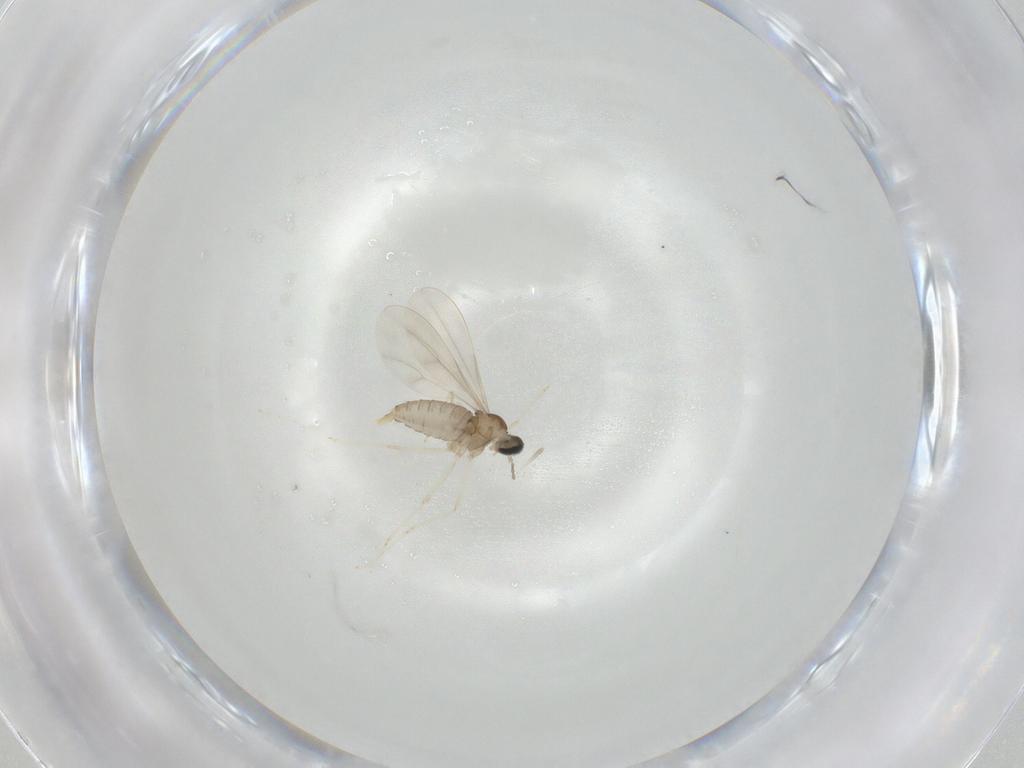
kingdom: Animalia
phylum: Arthropoda
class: Insecta
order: Diptera
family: Cecidomyiidae
